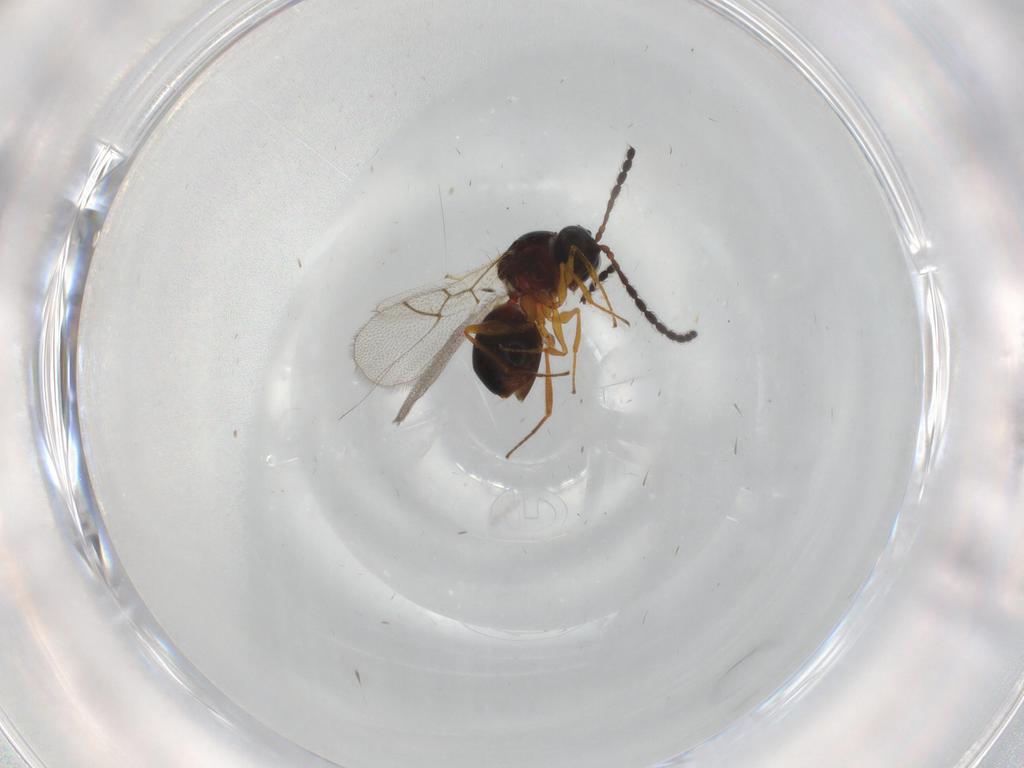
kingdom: Animalia
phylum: Arthropoda
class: Insecta
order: Hymenoptera
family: Figitidae
